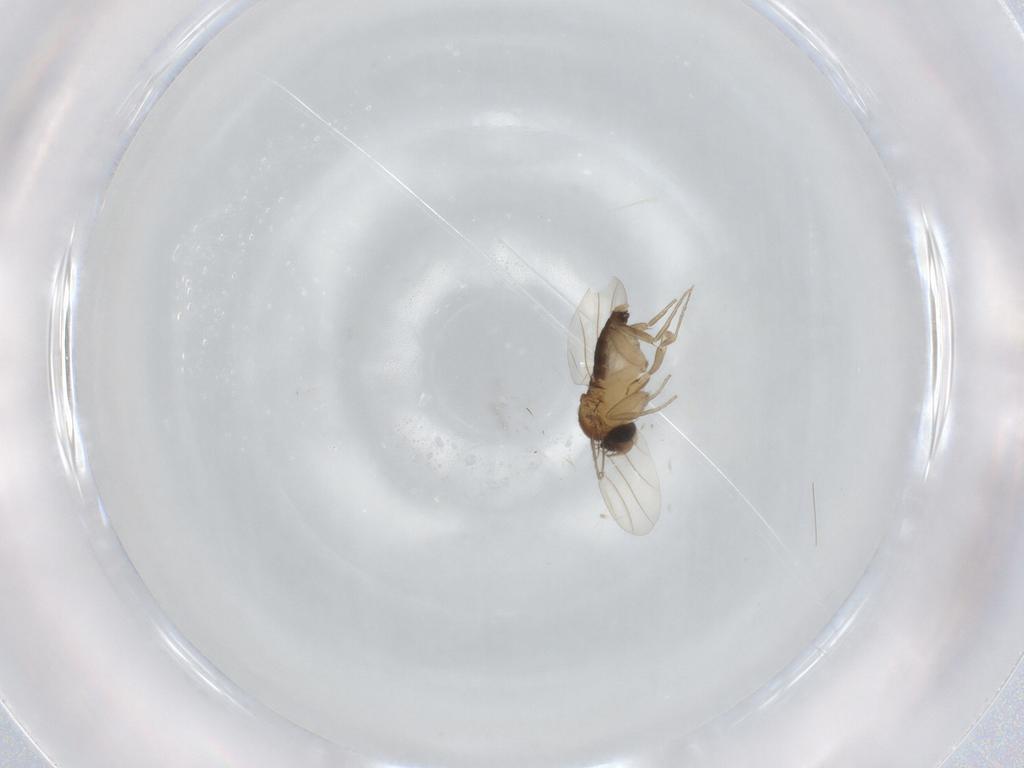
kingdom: Animalia
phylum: Arthropoda
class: Insecta
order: Diptera
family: Phoridae
